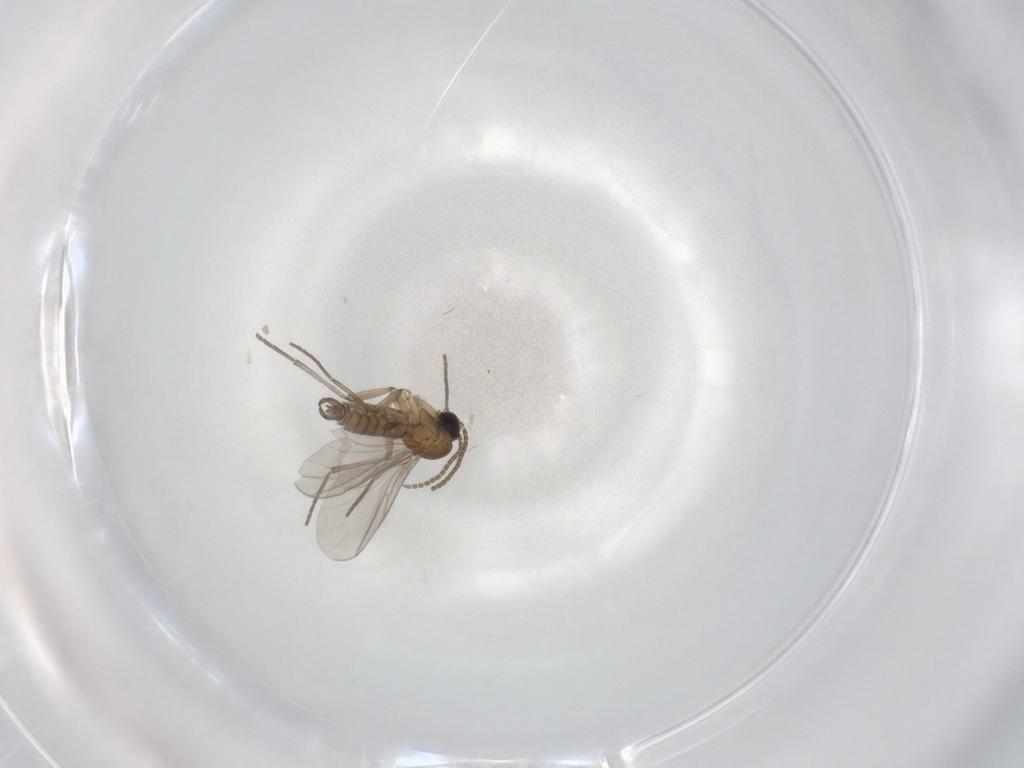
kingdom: Animalia
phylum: Arthropoda
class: Insecta
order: Diptera
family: Sciaridae
